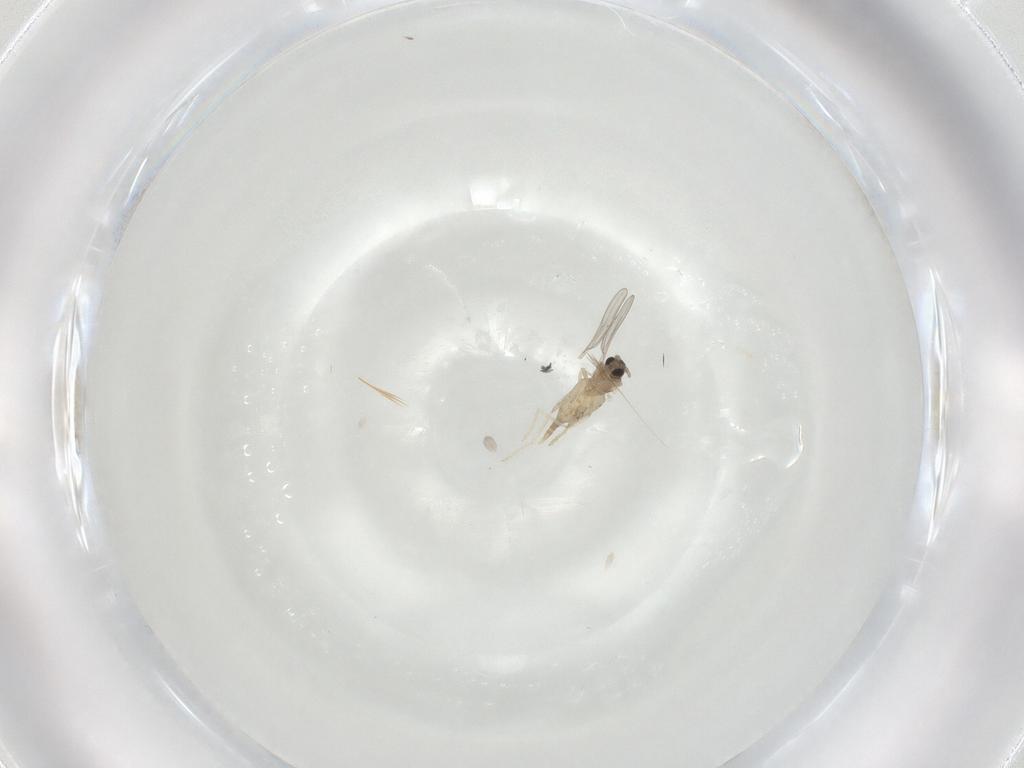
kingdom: Animalia
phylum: Arthropoda
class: Insecta
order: Diptera
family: Cecidomyiidae
